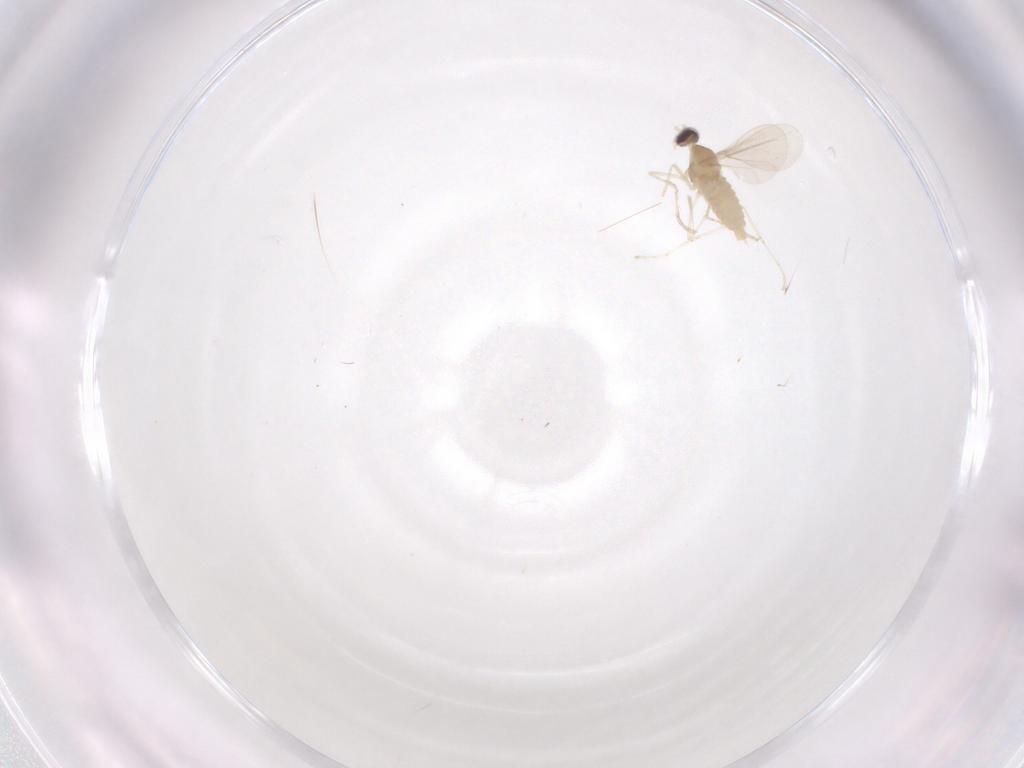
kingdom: Animalia
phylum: Arthropoda
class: Insecta
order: Diptera
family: Cecidomyiidae
